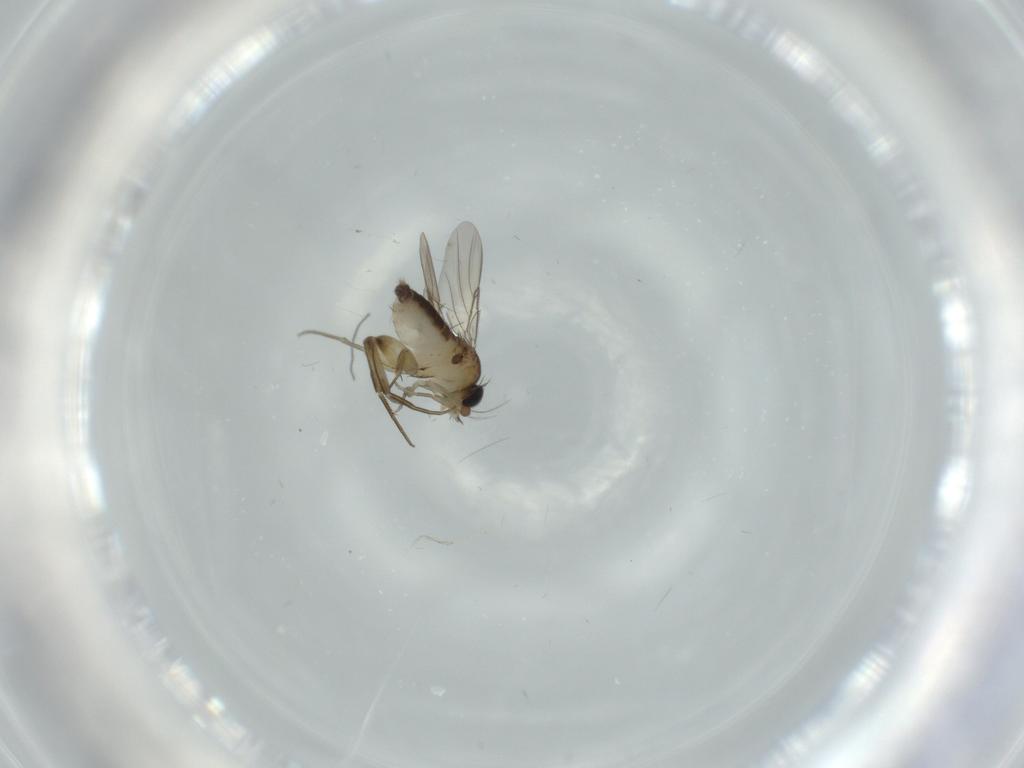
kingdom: Animalia
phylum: Arthropoda
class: Insecta
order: Diptera
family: Phoridae
